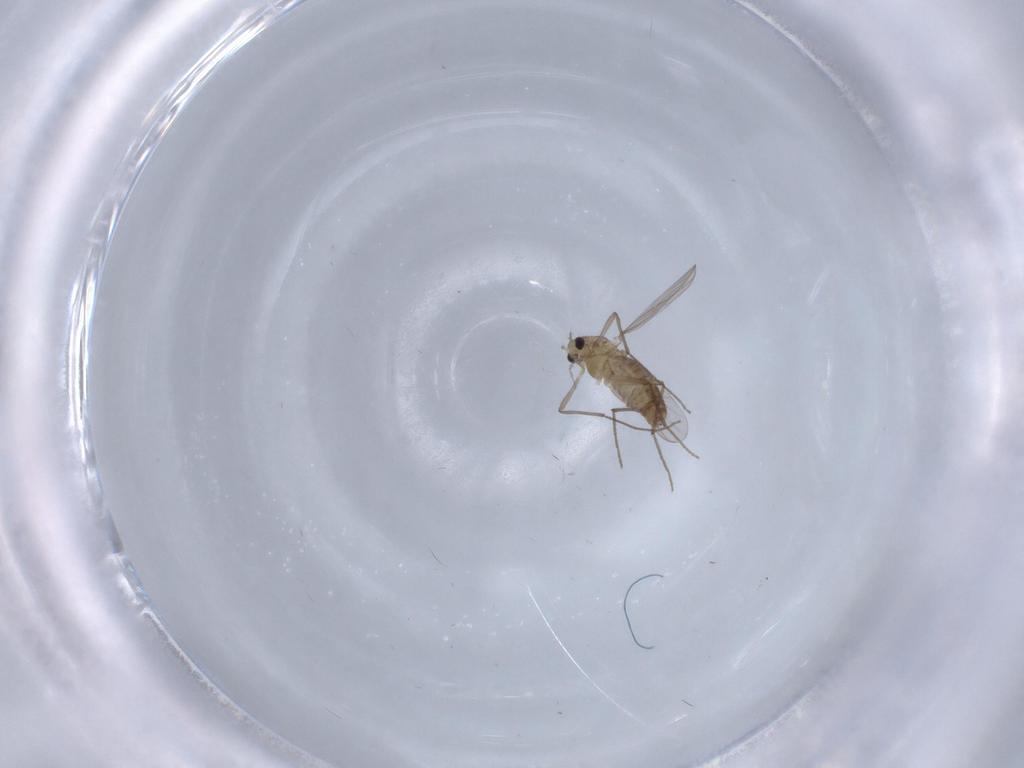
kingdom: Animalia
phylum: Arthropoda
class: Insecta
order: Diptera
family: Chironomidae
